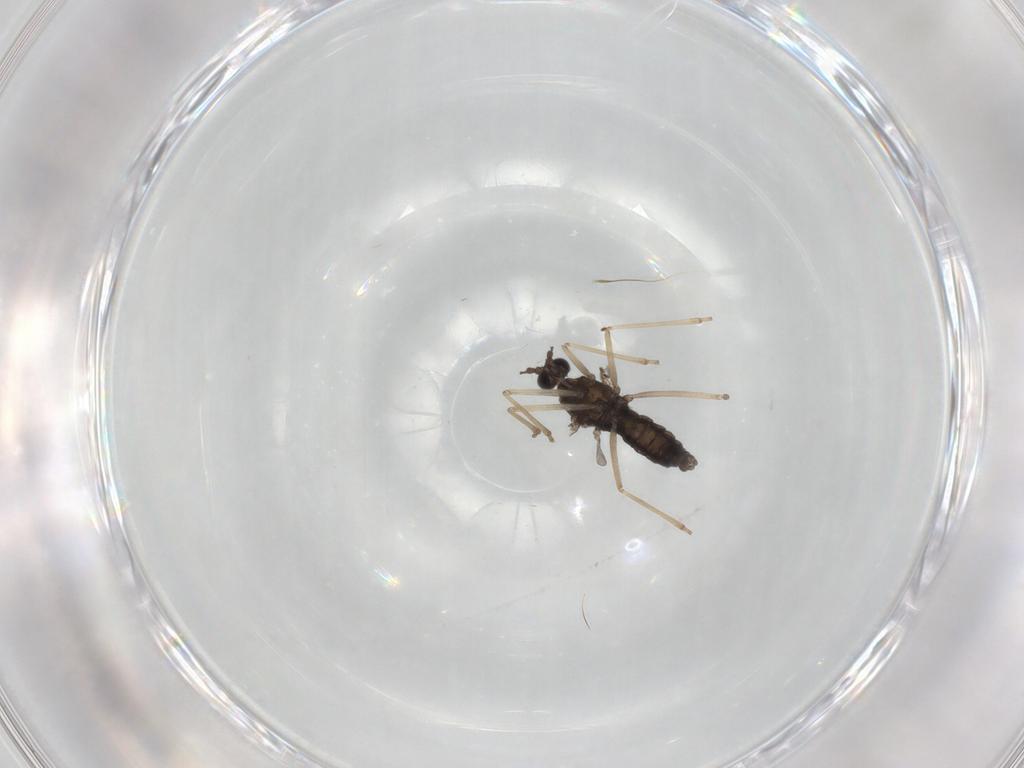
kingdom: Animalia
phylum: Arthropoda
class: Insecta
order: Diptera
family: Cecidomyiidae
